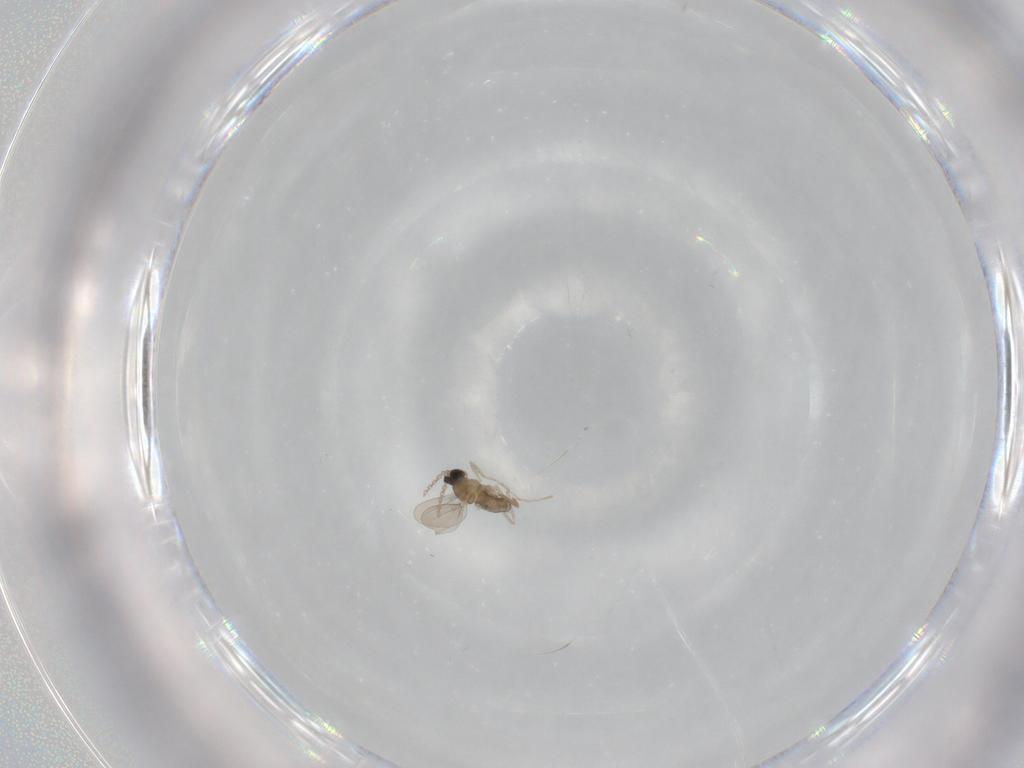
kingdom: Animalia
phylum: Arthropoda
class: Insecta
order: Diptera
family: Cecidomyiidae
